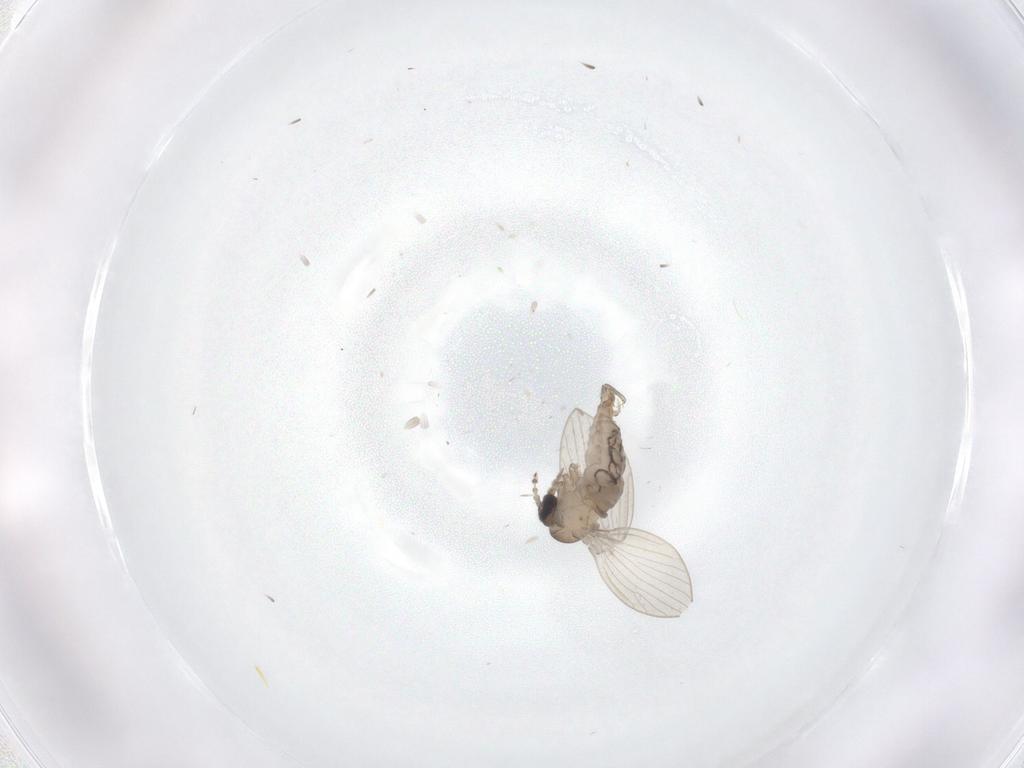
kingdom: Animalia
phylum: Arthropoda
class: Insecta
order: Diptera
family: Psychodidae
